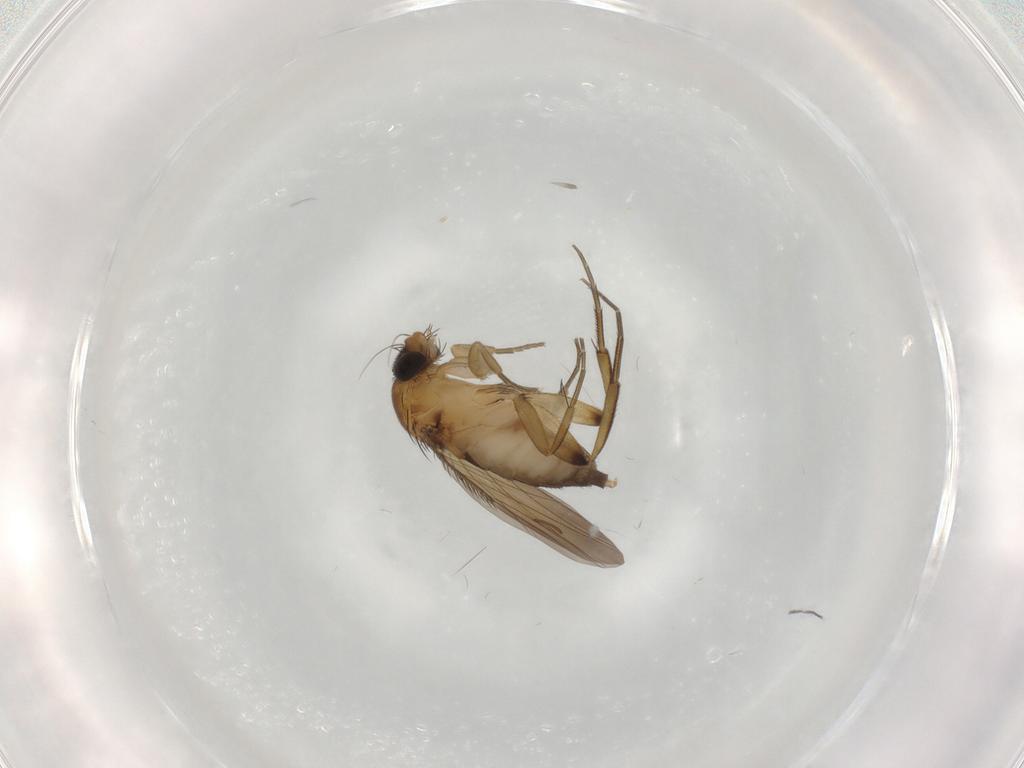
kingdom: Animalia
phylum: Arthropoda
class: Insecta
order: Diptera
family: Phoridae
